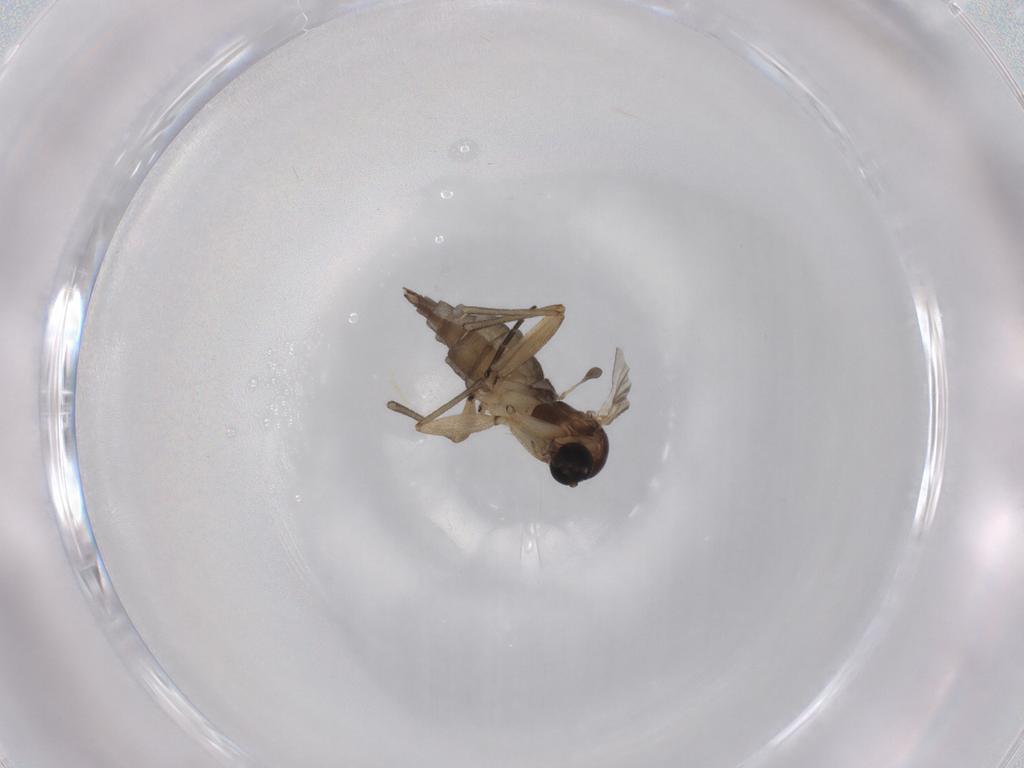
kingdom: Animalia
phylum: Arthropoda
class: Insecta
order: Diptera
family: Sciaridae
